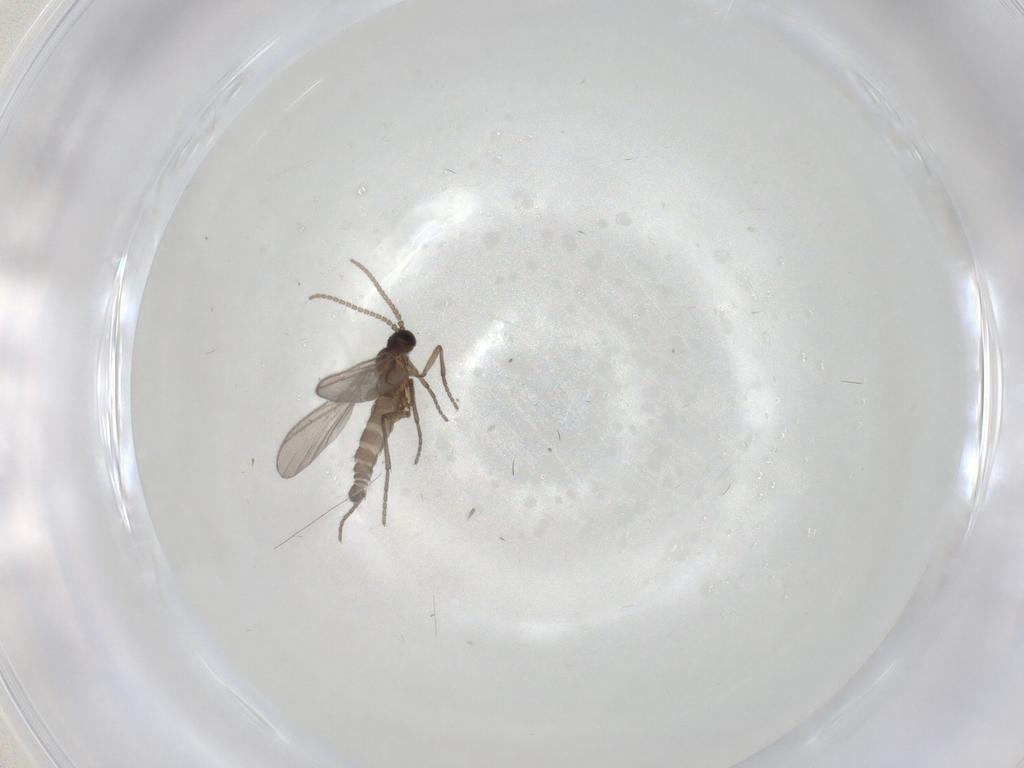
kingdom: Animalia
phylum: Arthropoda
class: Insecta
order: Diptera
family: Sciaridae
